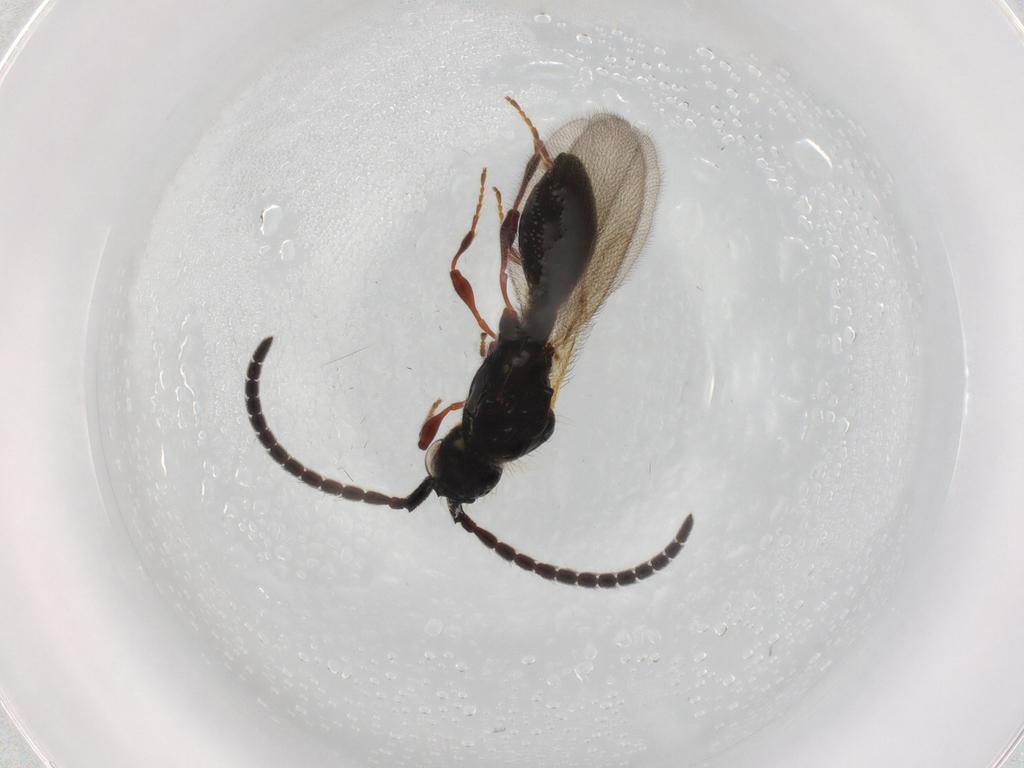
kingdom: Animalia
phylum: Arthropoda
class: Insecta
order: Hymenoptera
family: Diapriidae
